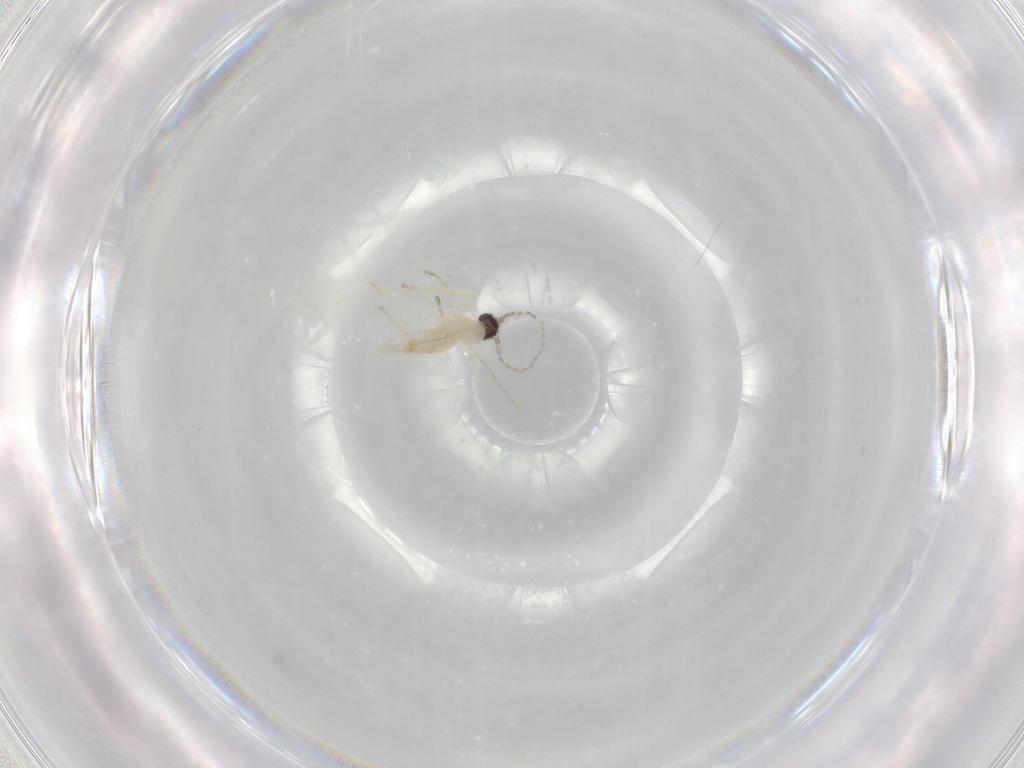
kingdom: Animalia
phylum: Arthropoda
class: Insecta
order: Diptera
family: Cecidomyiidae
